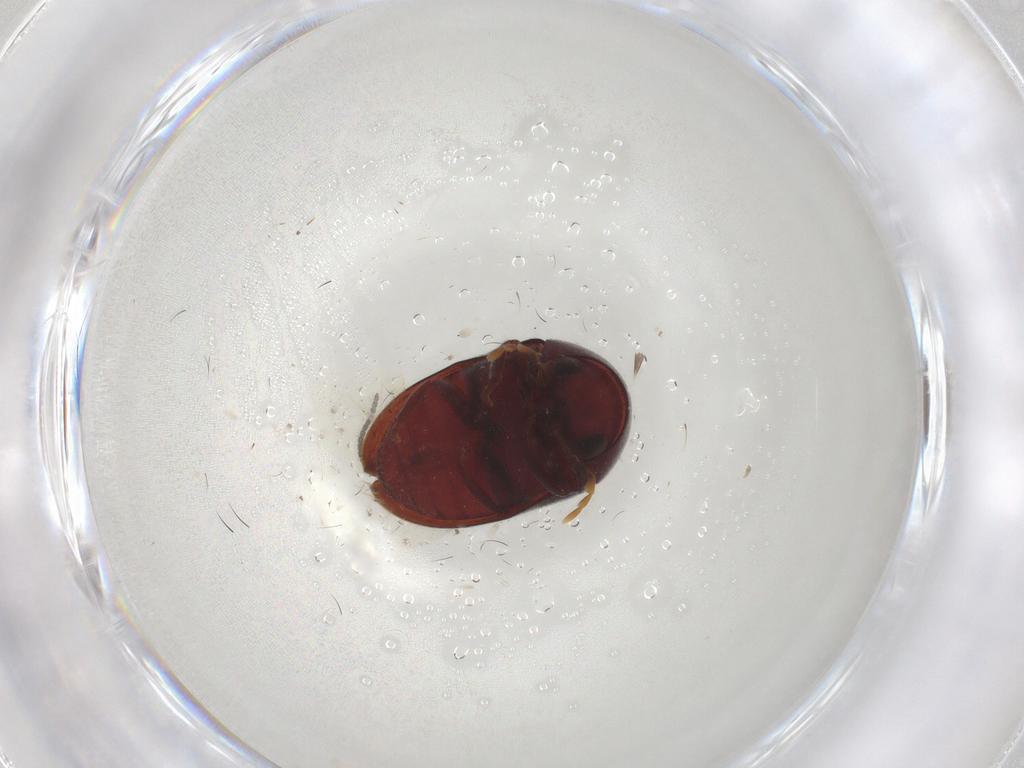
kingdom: Animalia
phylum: Arthropoda
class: Insecta
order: Coleoptera
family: Ptinidae
